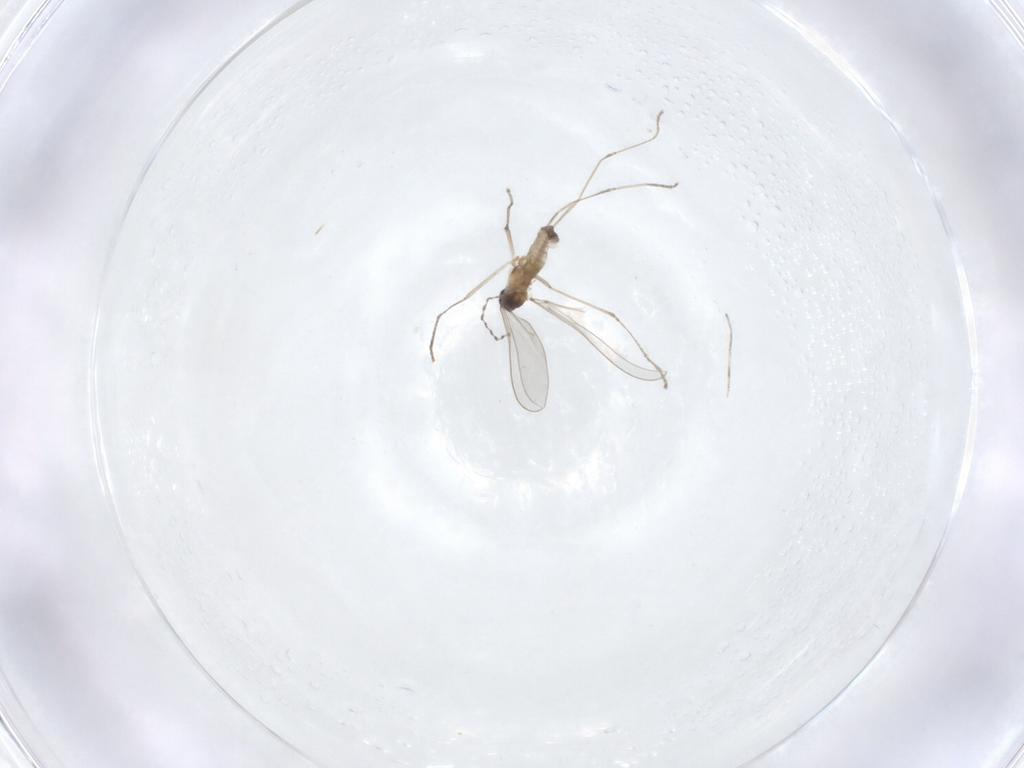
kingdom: Animalia
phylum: Arthropoda
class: Insecta
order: Diptera
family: Cecidomyiidae
